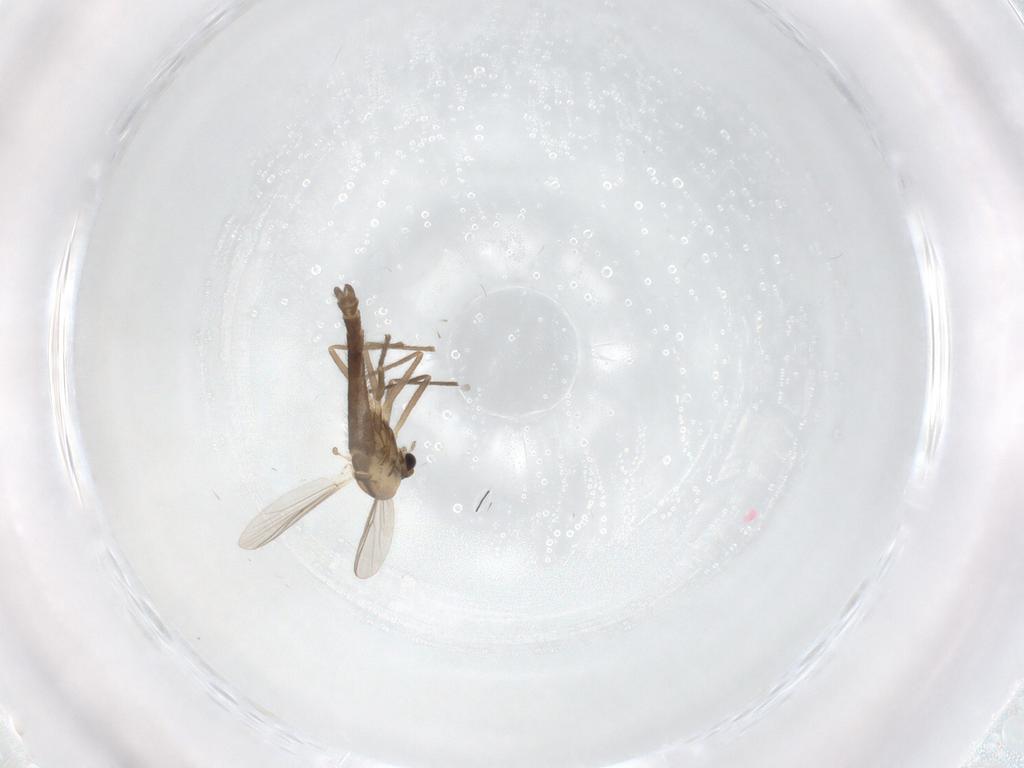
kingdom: Animalia
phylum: Arthropoda
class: Insecta
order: Diptera
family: Chironomidae
